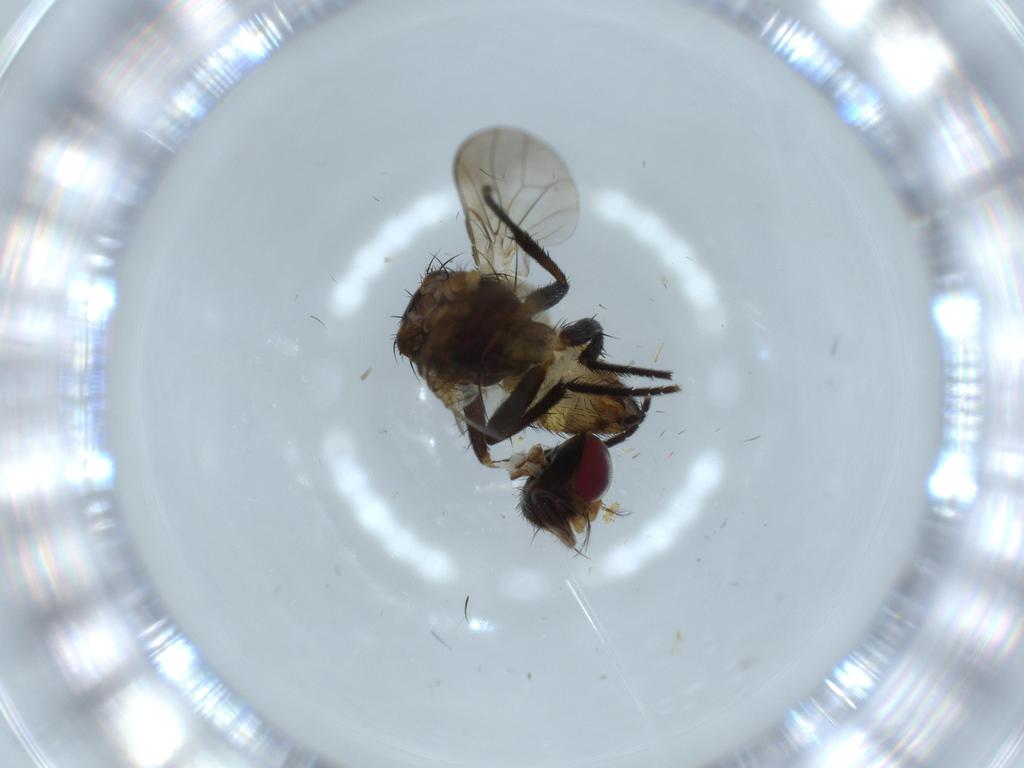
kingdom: Animalia
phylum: Arthropoda
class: Insecta
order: Diptera
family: Anthomyiidae
